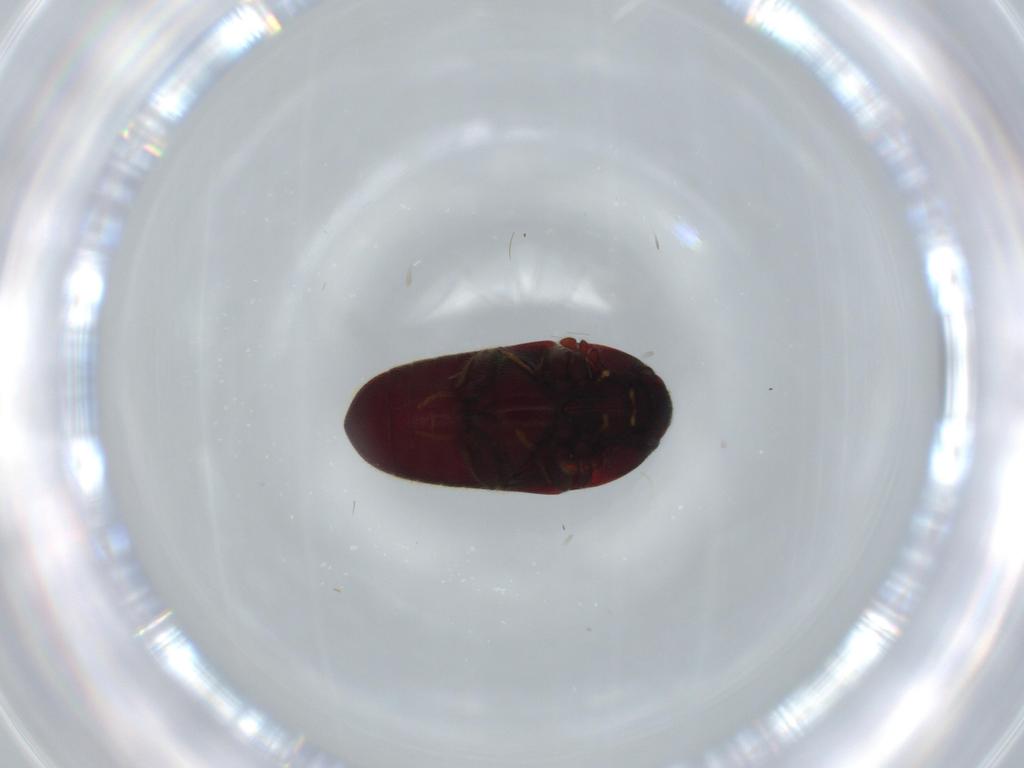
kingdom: Animalia
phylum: Arthropoda
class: Insecta
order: Coleoptera
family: Throscidae
